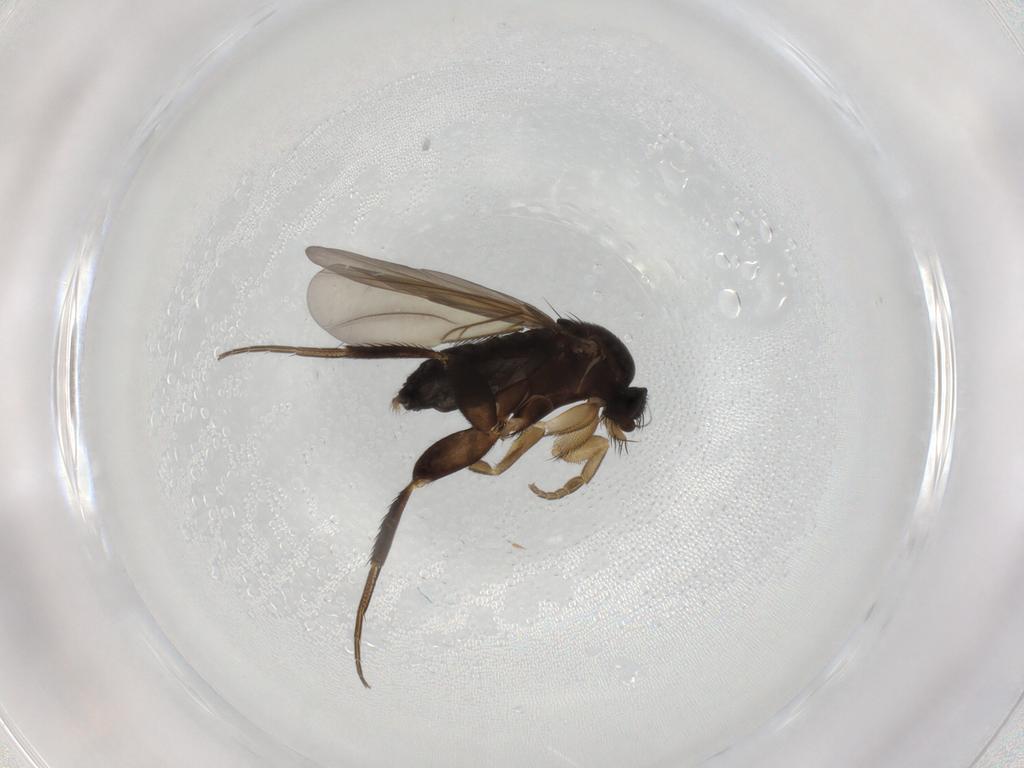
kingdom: Animalia
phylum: Arthropoda
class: Insecta
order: Diptera
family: Phoridae
